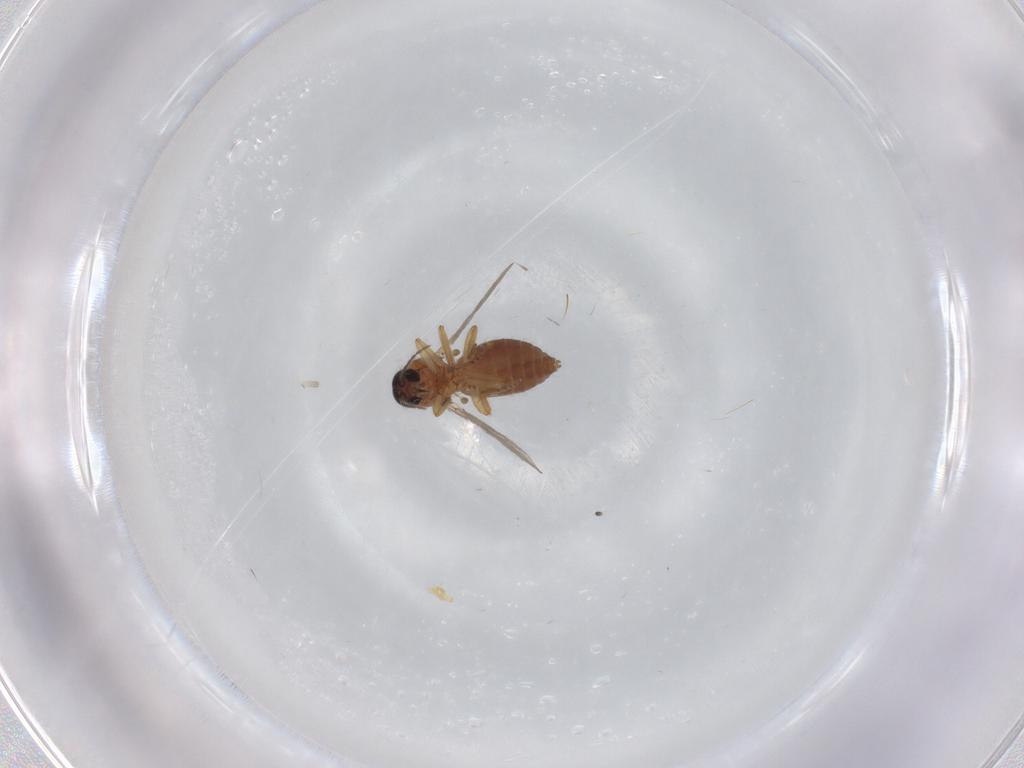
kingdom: Animalia
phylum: Arthropoda
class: Insecta
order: Diptera
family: Ceratopogonidae
